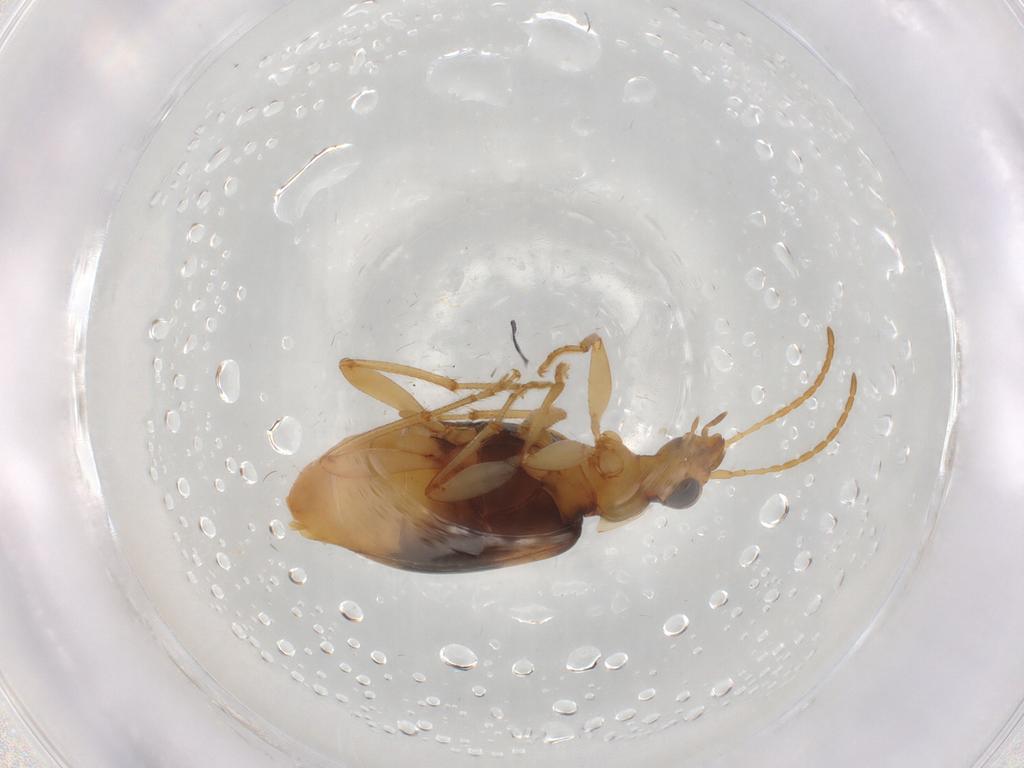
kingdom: Animalia
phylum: Arthropoda
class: Insecta
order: Coleoptera
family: Carabidae
